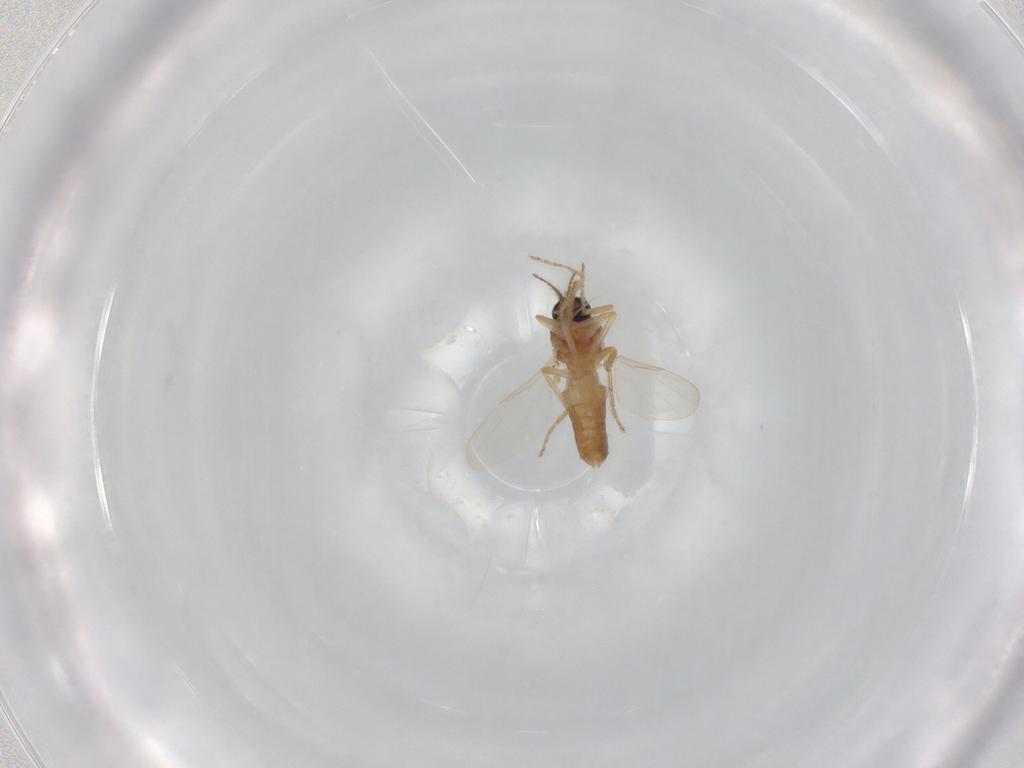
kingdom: Animalia
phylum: Arthropoda
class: Insecta
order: Diptera
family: Phoridae
